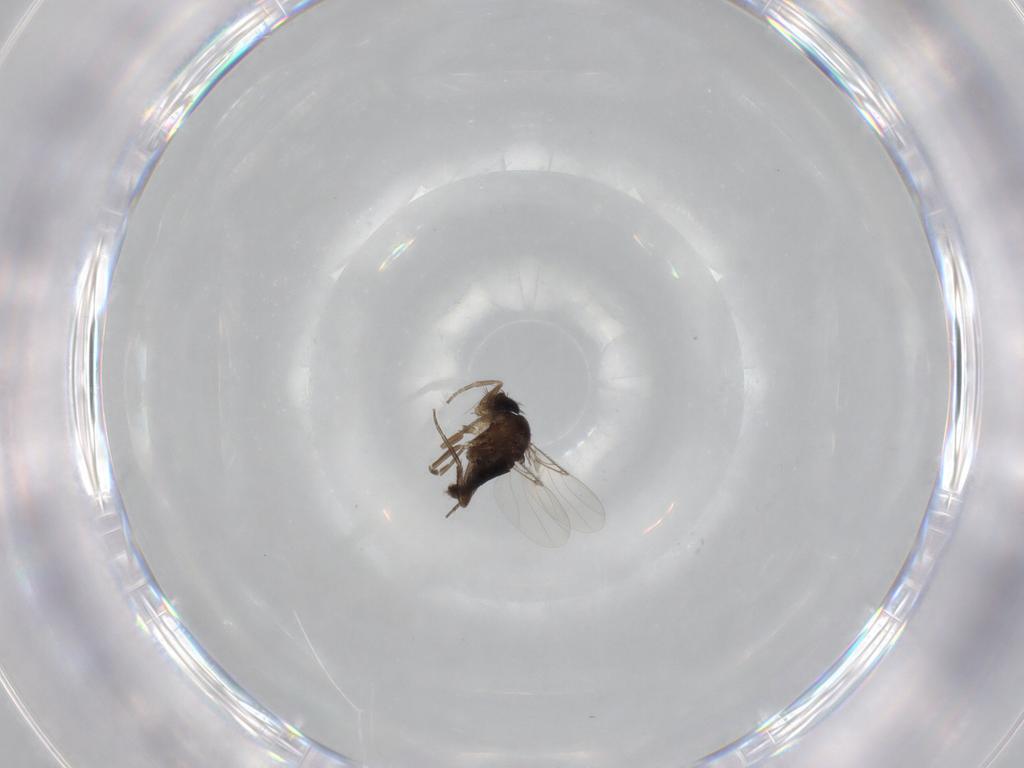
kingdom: Animalia
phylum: Arthropoda
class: Insecta
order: Diptera
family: Phoridae
